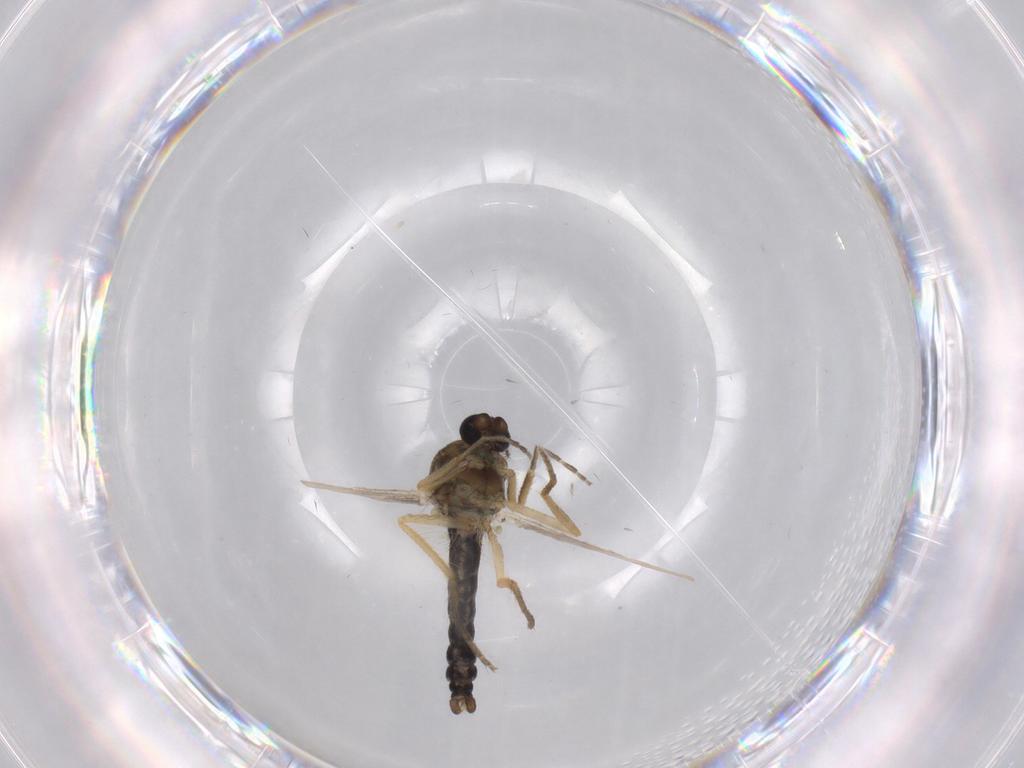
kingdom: Animalia
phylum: Arthropoda
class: Insecta
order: Diptera
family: Ceratopogonidae
